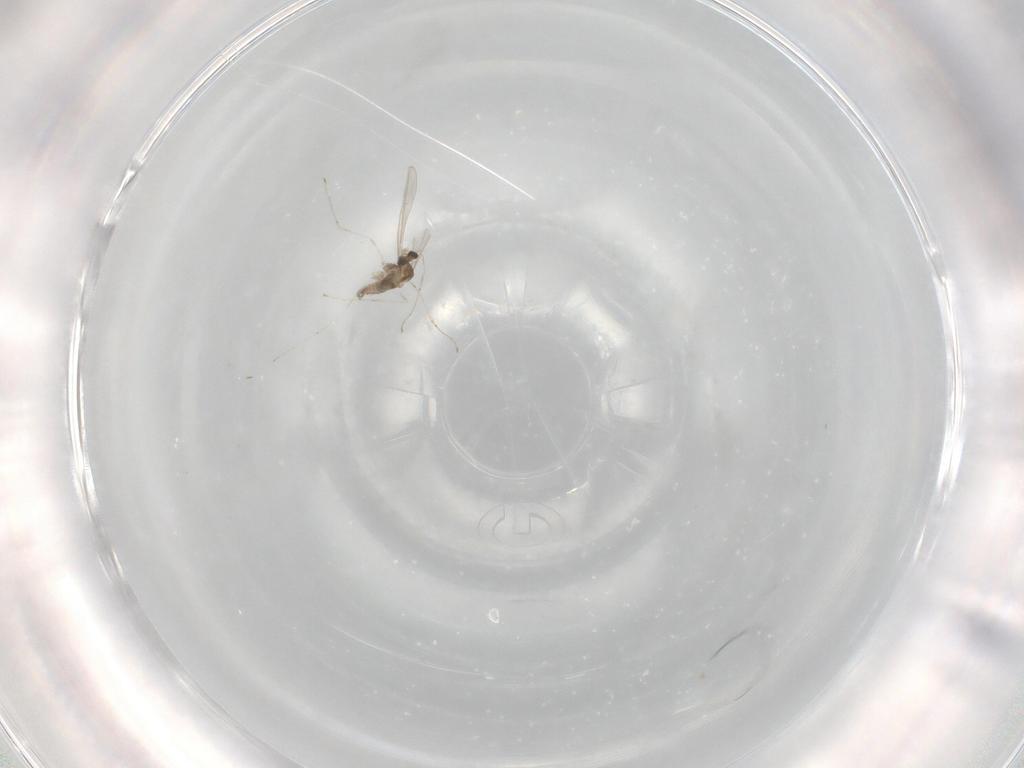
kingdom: Animalia
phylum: Arthropoda
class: Insecta
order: Diptera
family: Cecidomyiidae
